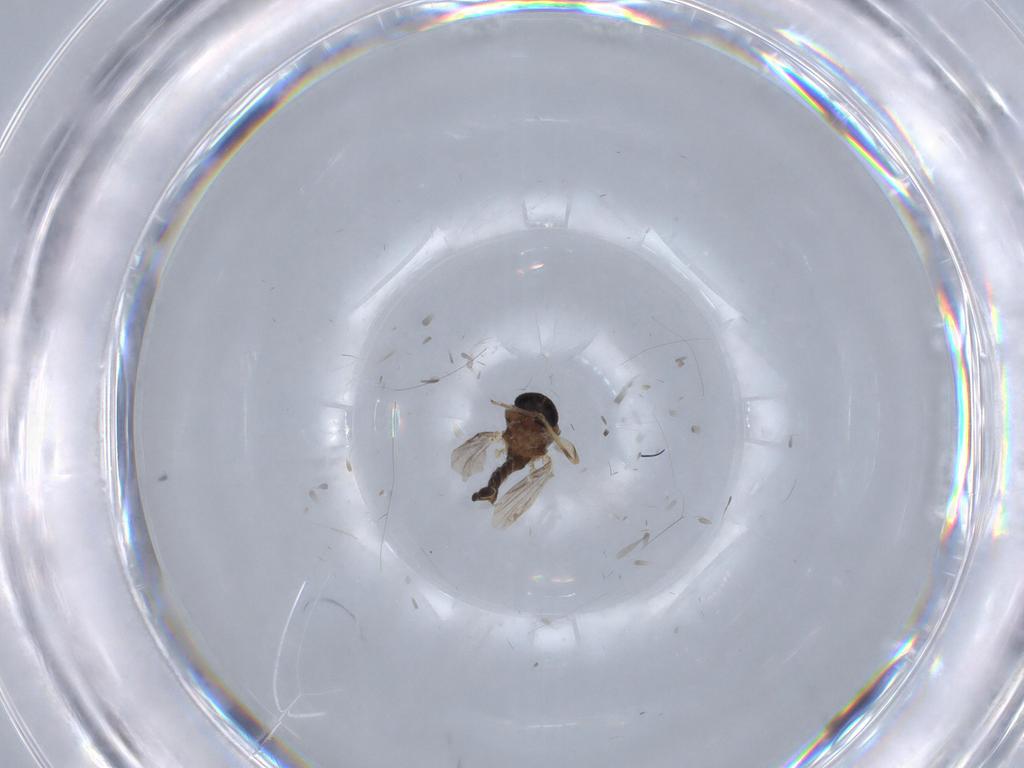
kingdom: Animalia
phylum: Arthropoda
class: Insecta
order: Diptera
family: Ceratopogonidae
